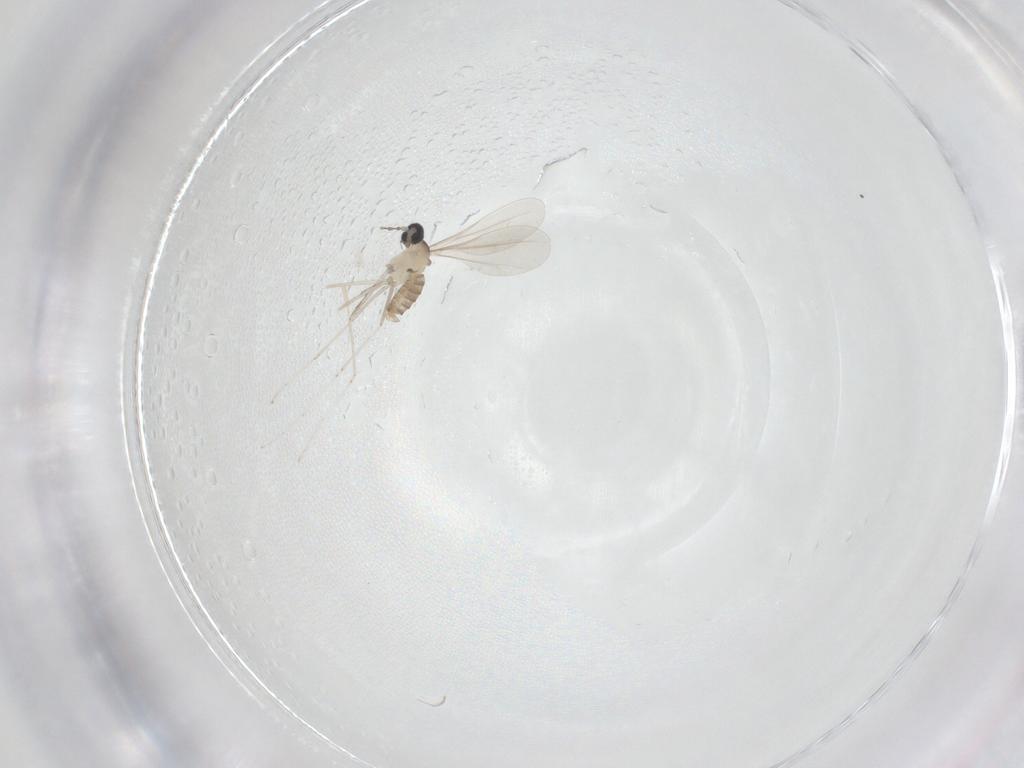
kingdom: Animalia
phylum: Arthropoda
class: Insecta
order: Diptera
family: Cecidomyiidae
